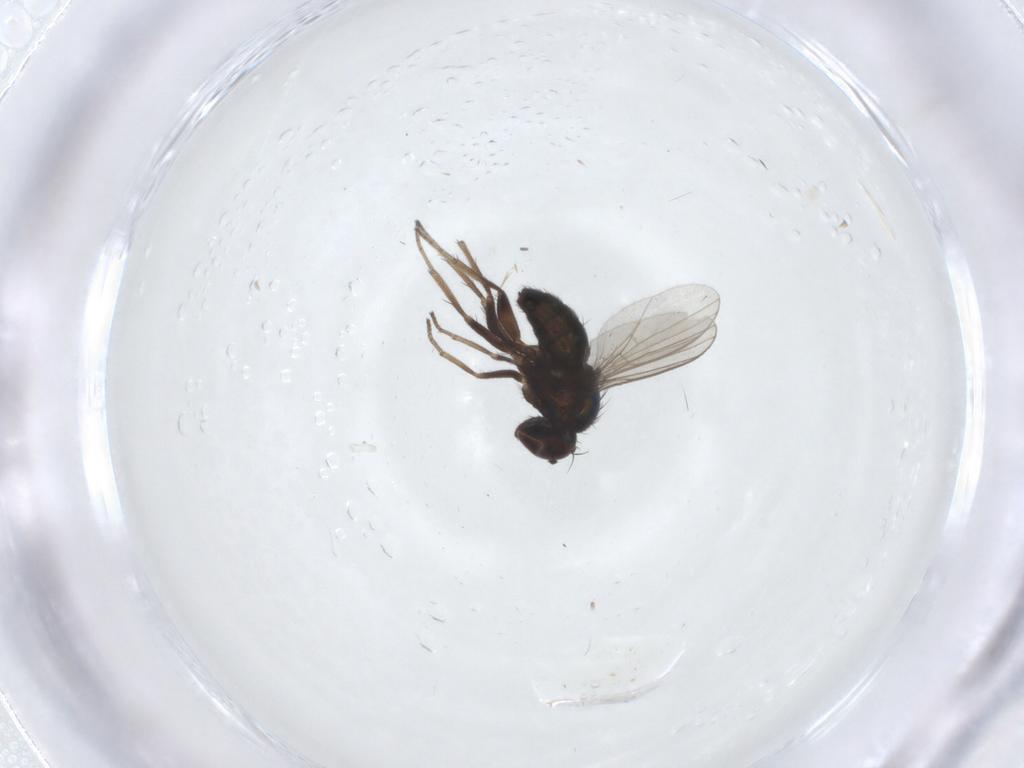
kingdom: Animalia
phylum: Arthropoda
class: Insecta
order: Diptera
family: Dolichopodidae
